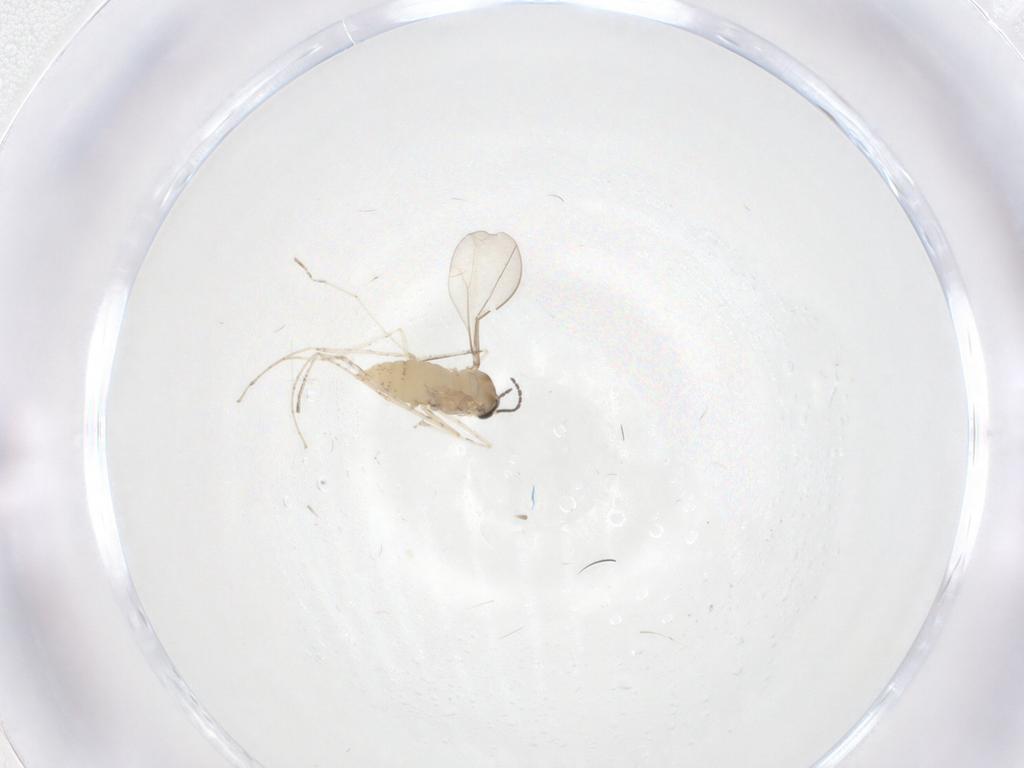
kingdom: Animalia
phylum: Arthropoda
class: Insecta
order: Diptera
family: Cecidomyiidae
